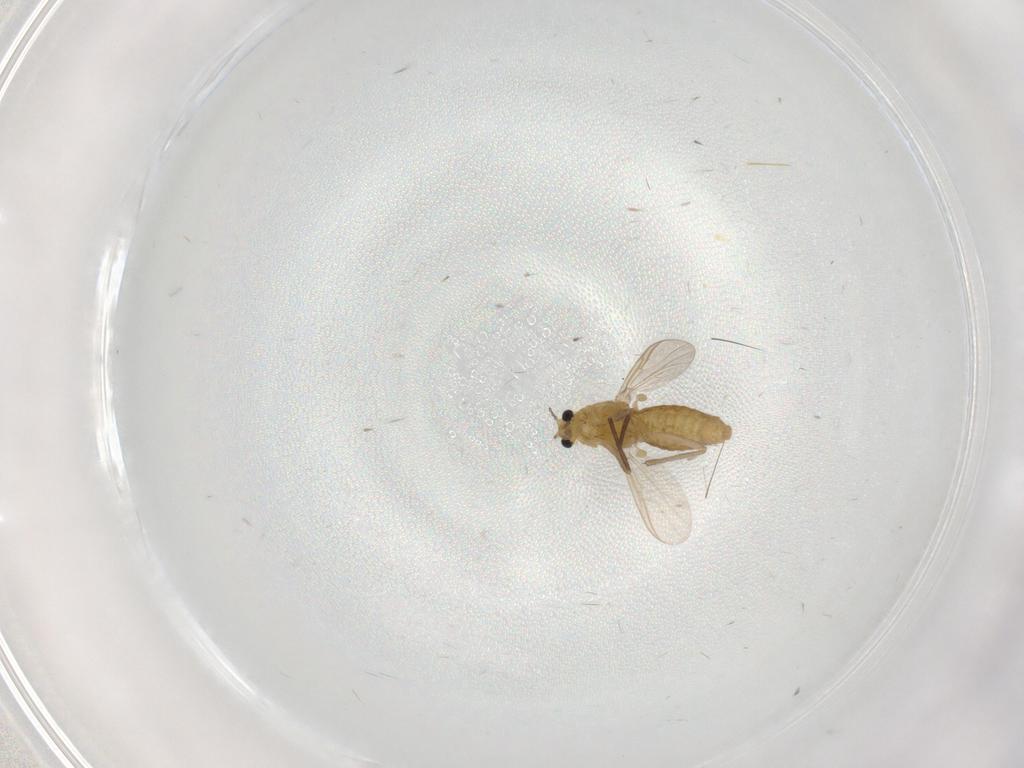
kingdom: Animalia
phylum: Arthropoda
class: Insecta
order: Diptera
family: Chironomidae
